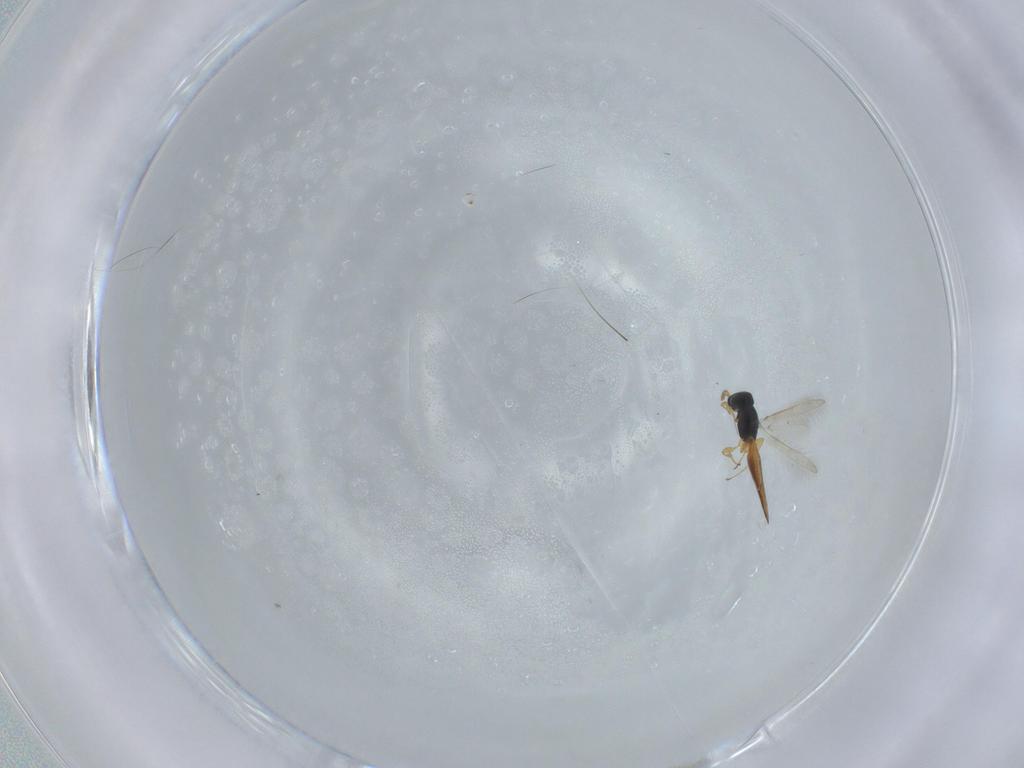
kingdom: Animalia
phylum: Arthropoda
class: Insecta
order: Hymenoptera
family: Scelionidae
